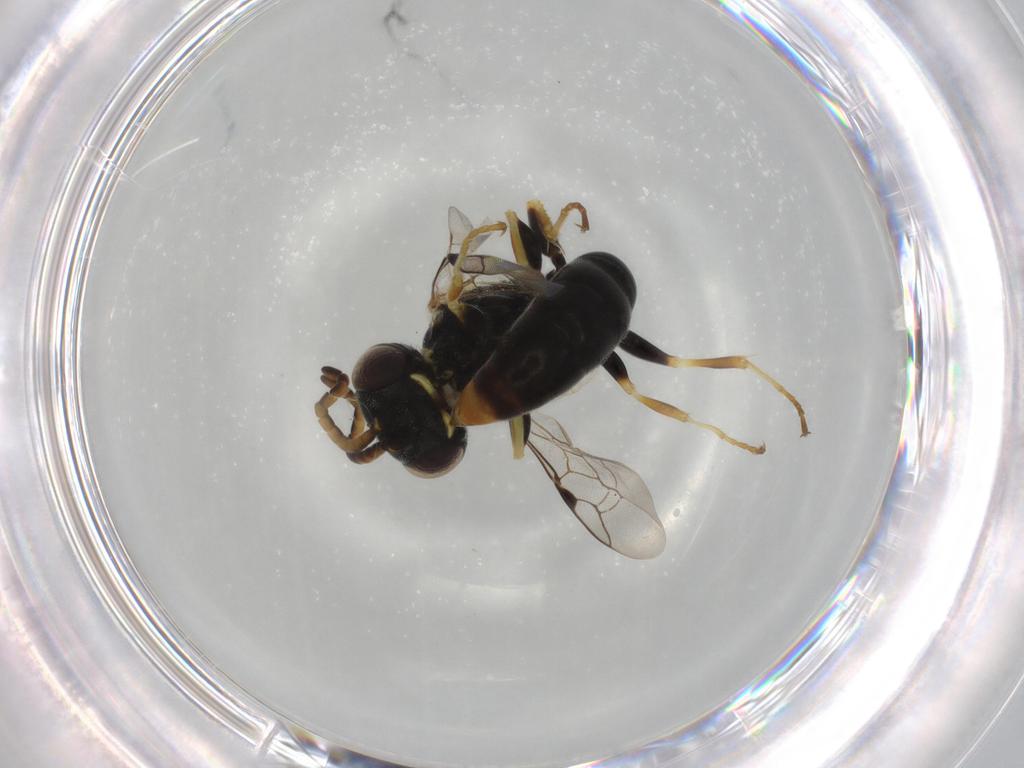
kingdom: Animalia
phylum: Arthropoda
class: Insecta
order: Hymenoptera
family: Crabronidae
